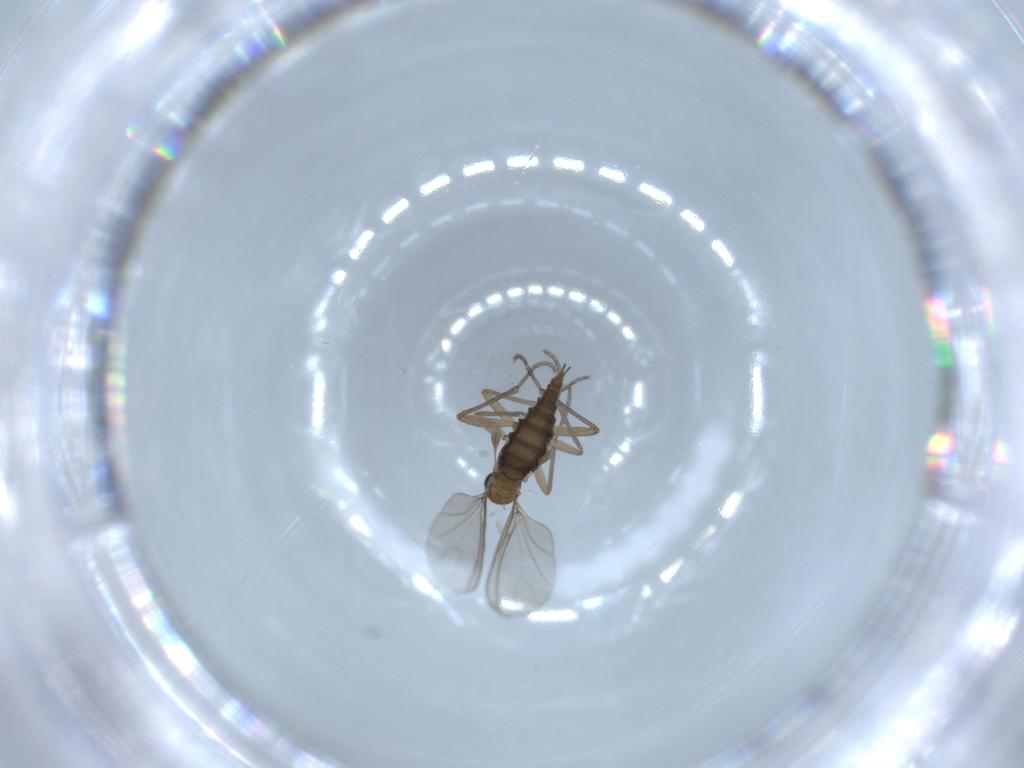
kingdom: Animalia
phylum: Arthropoda
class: Insecta
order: Diptera
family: Sciaridae
